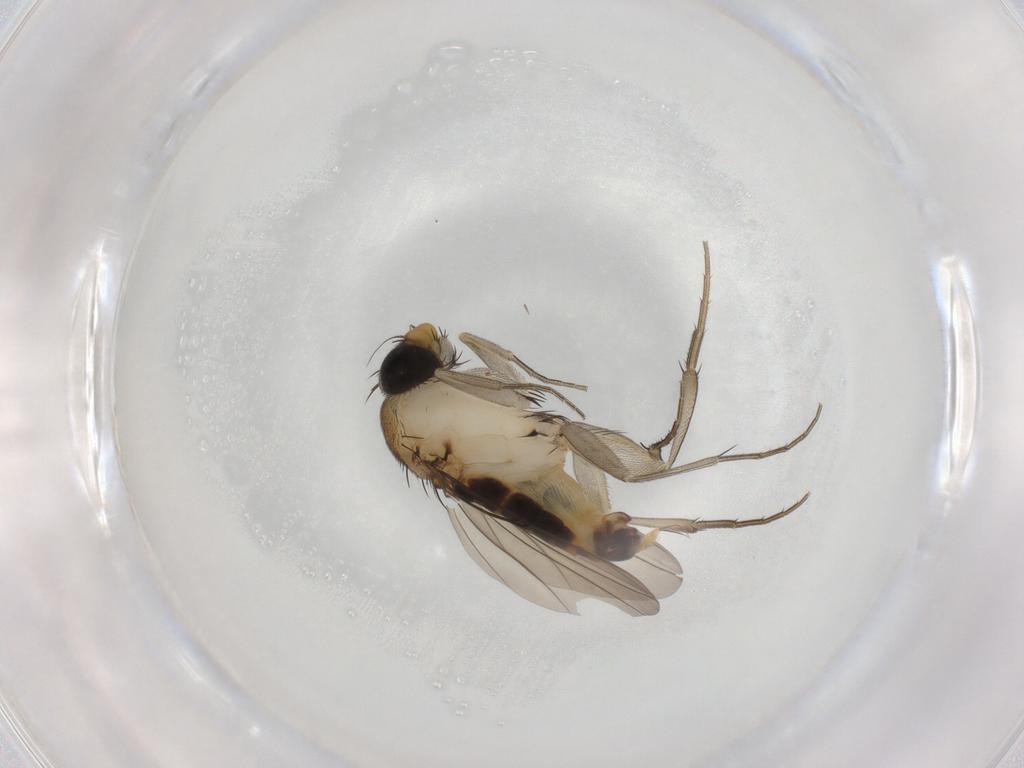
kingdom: Animalia
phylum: Arthropoda
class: Insecta
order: Diptera
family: Phoridae
